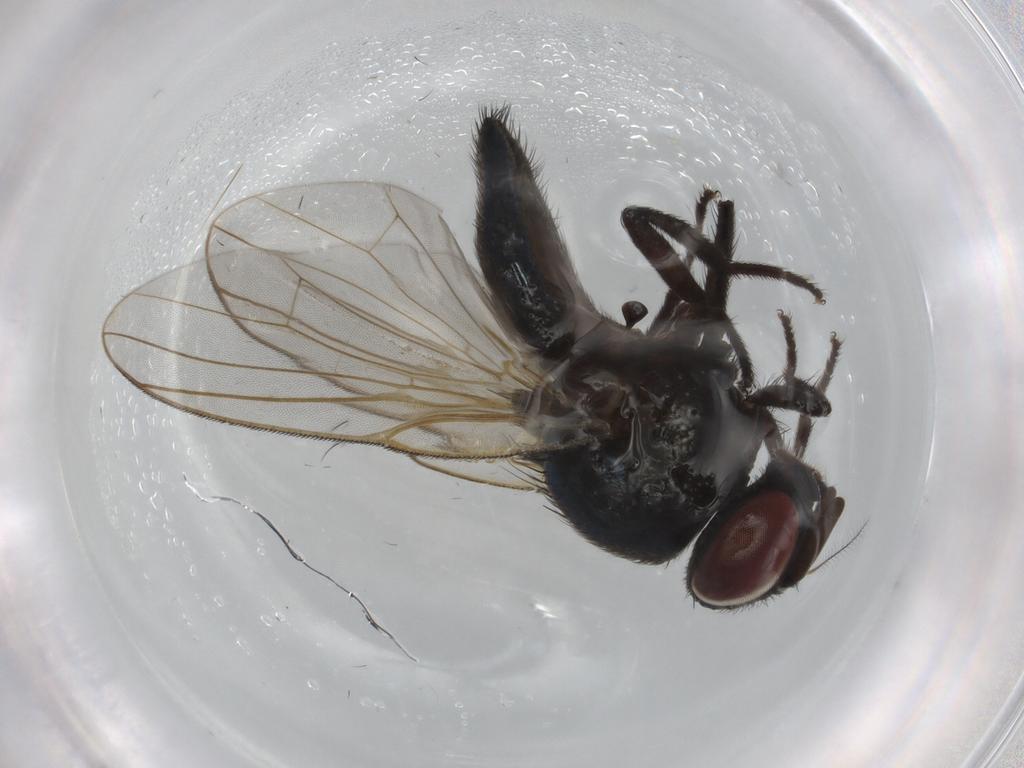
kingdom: Animalia
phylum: Arthropoda
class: Insecta
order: Diptera
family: Lonchaeidae
